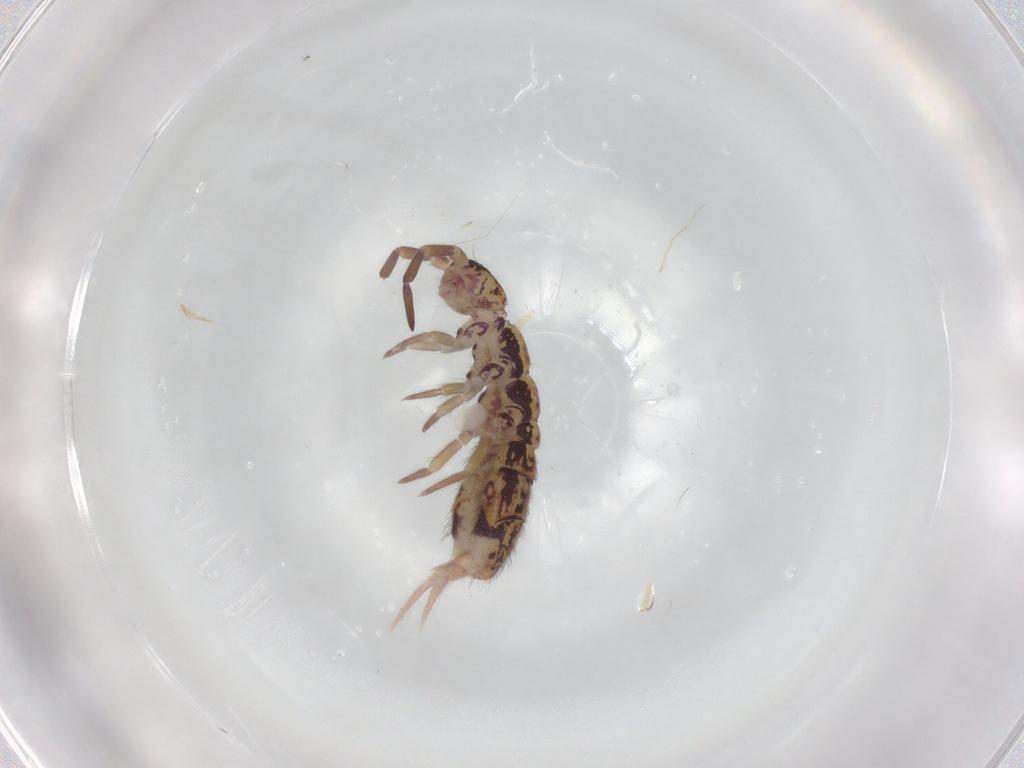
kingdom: Animalia
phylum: Arthropoda
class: Collembola
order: Entomobryomorpha
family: Isotomidae
